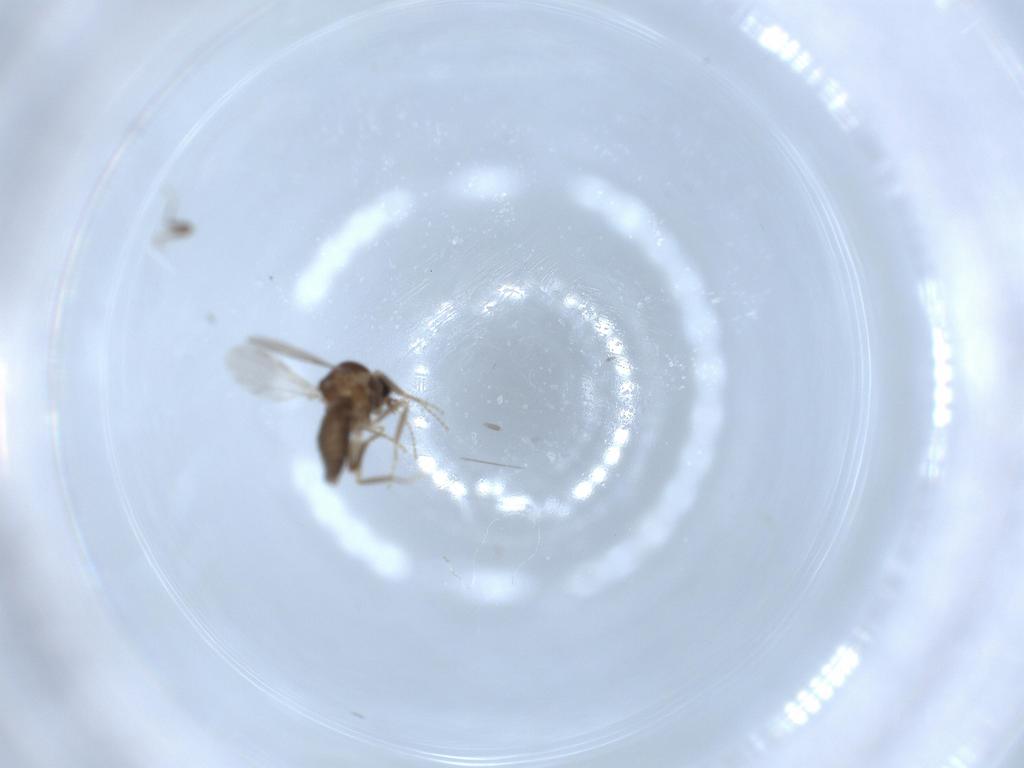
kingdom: Animalia
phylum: Arthropoda
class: Insecta
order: Diptera
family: Ceratopogonidae
